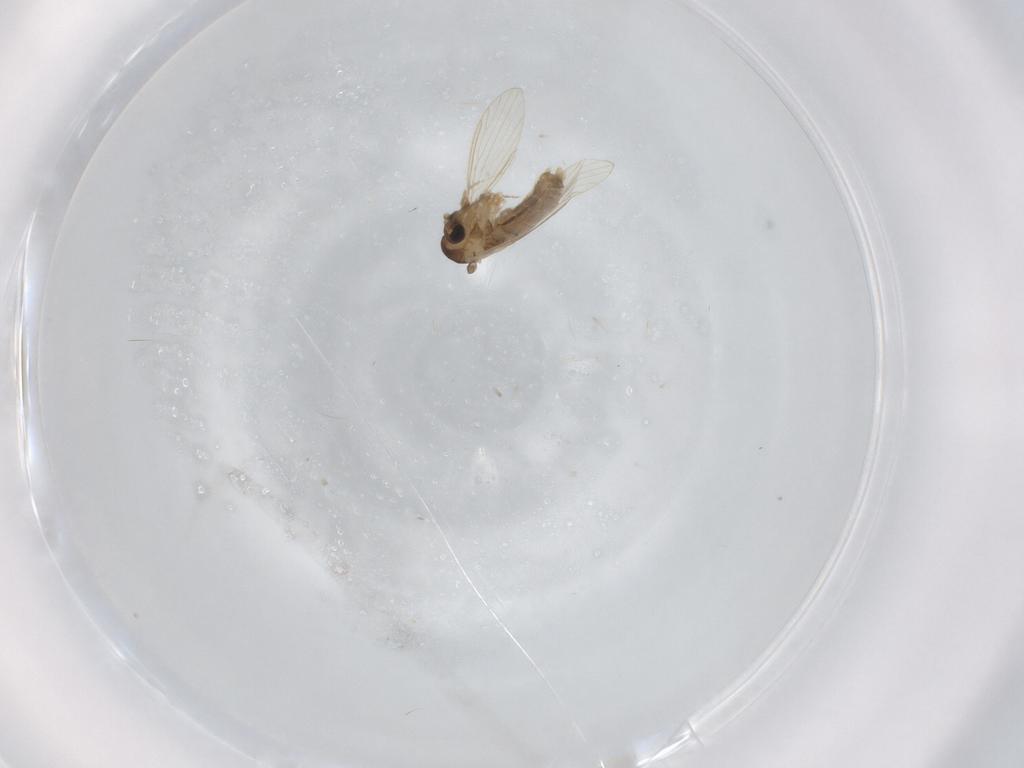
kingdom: Animalia
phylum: Arthropoda
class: Insecta
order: Diptera
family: Psychodidae
